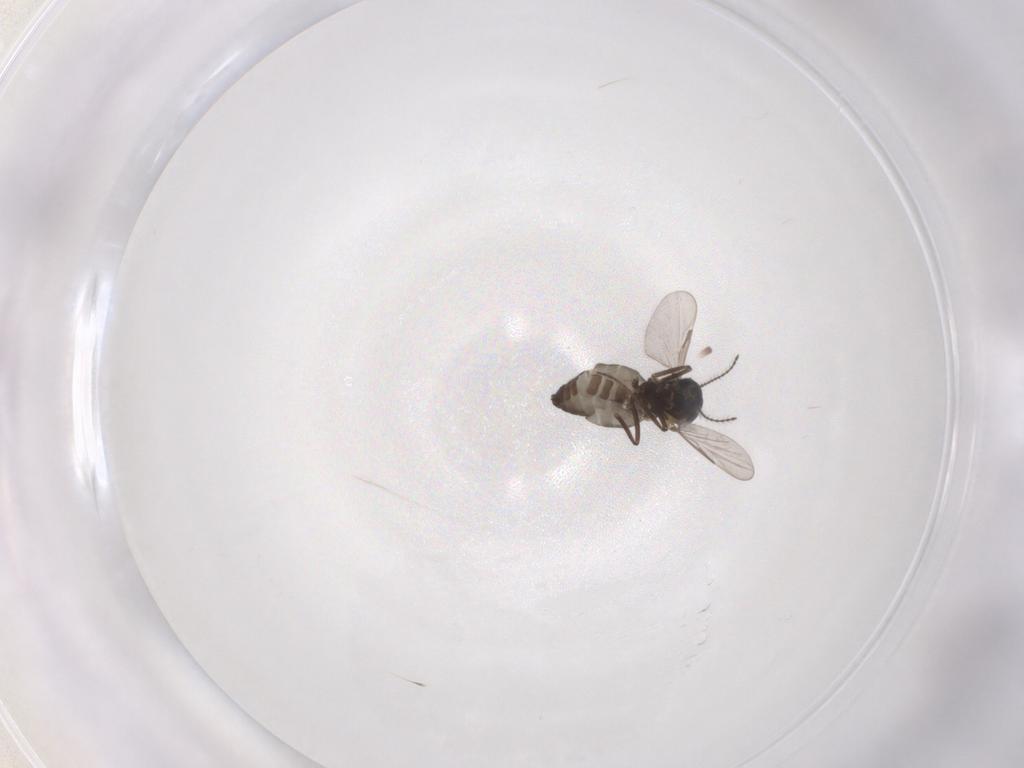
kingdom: Animalia
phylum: Arthropoda
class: Insecta
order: Diptera
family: Ceratopogonidae
